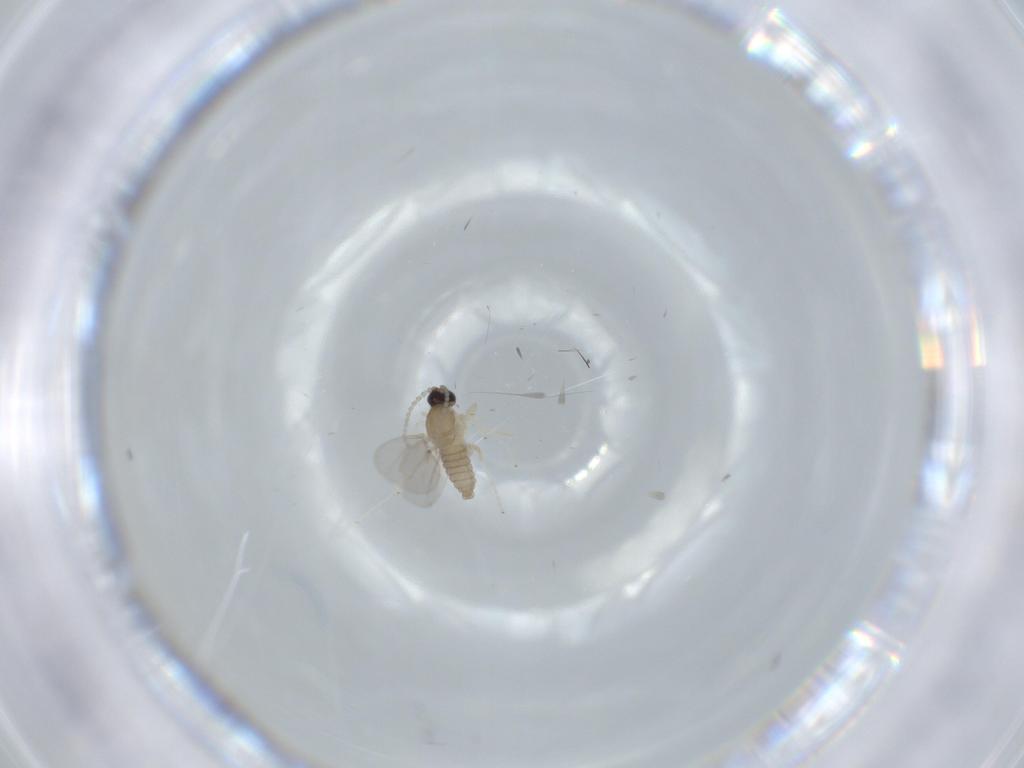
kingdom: Animalia
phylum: Arthropoda
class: Insecta
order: Diptera
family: Cecidomyiidae
